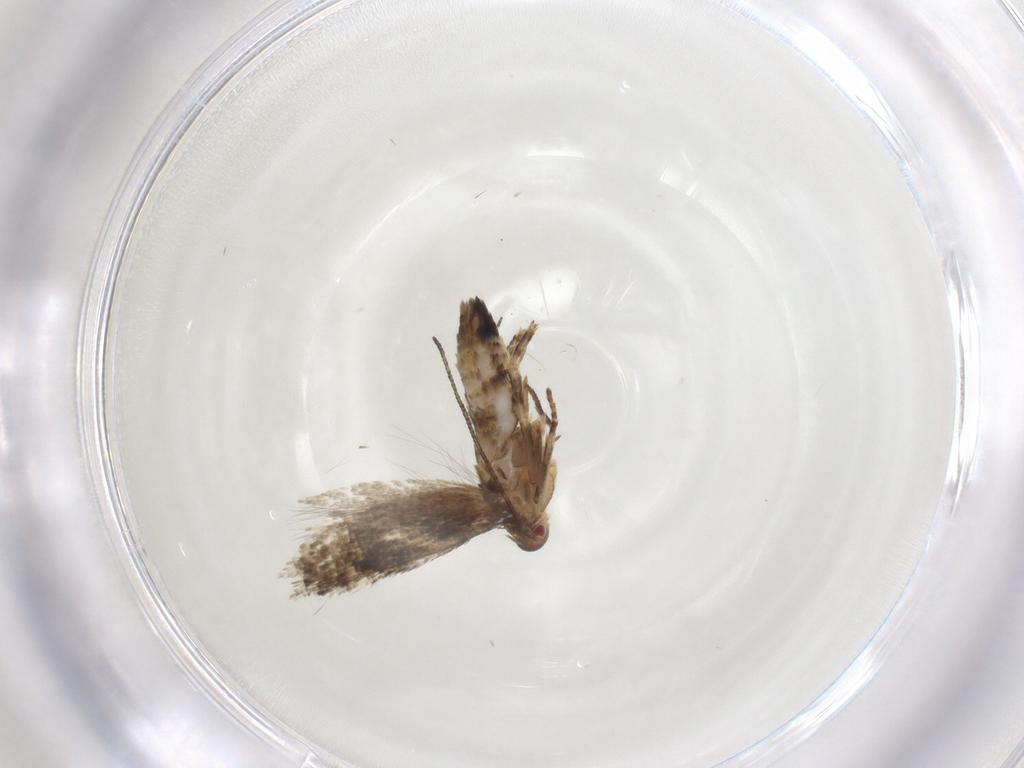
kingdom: Animalia
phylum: Arthropoda
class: Insecta
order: Lepidoptera
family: Momphidae
